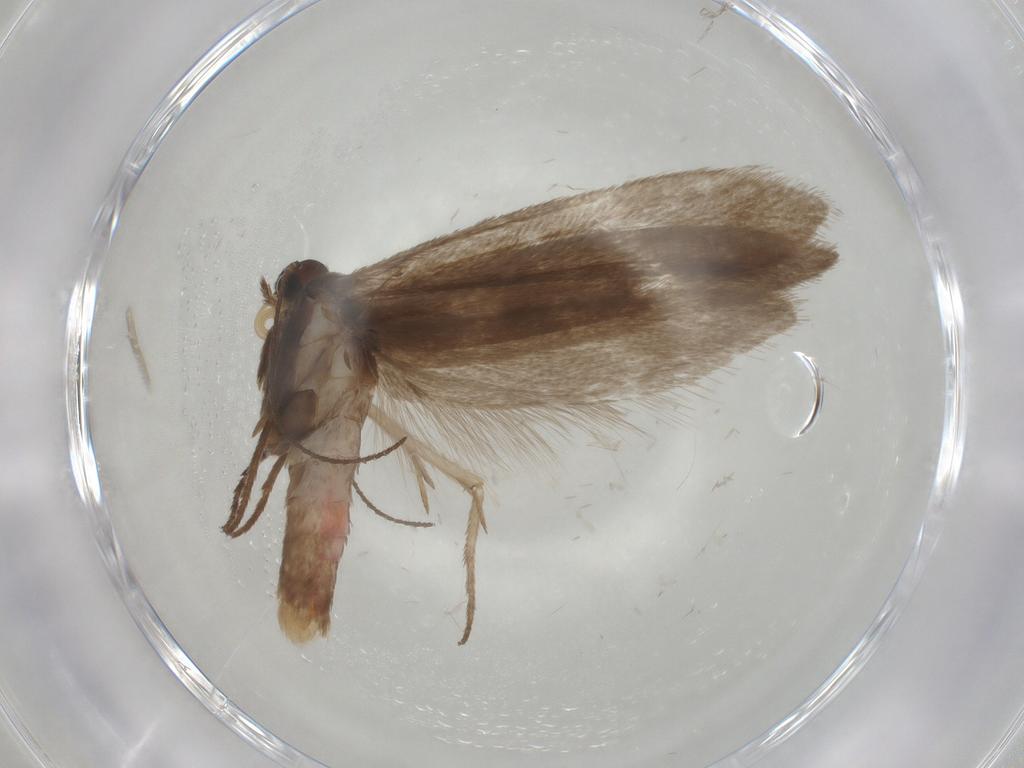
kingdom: Animalia
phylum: Arthropoda
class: Insecta
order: Lepidoptera
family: Limacodidae
